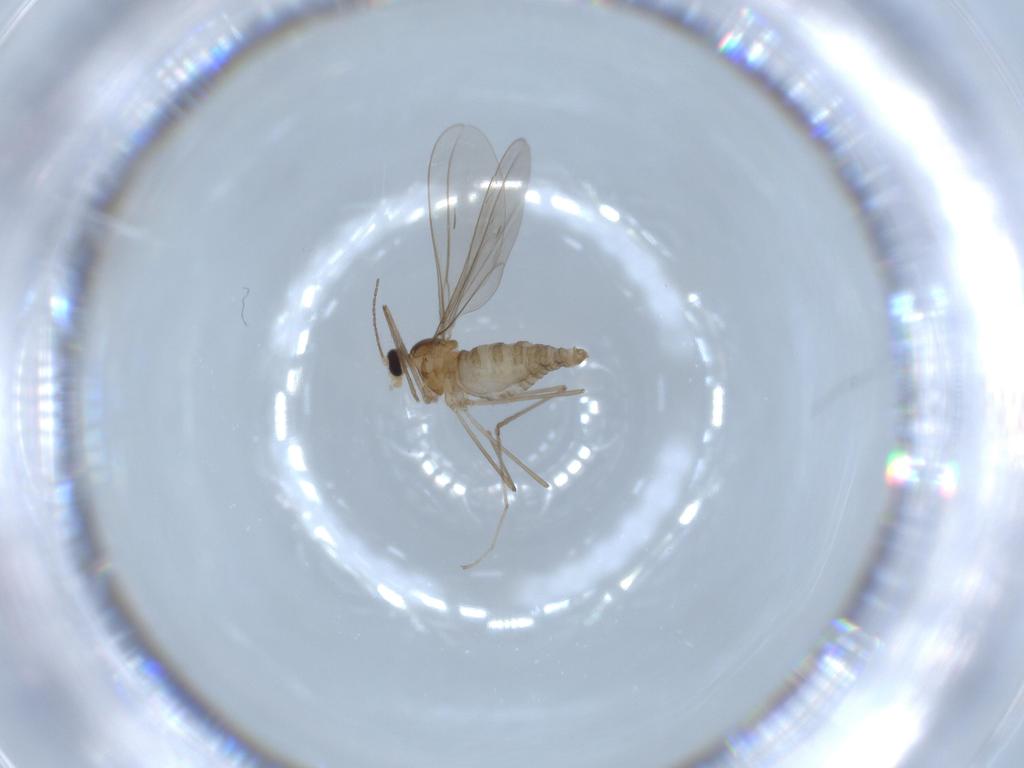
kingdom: Animalia
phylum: Arthropoda
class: Insecta
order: Diptera
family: Cecidomyiidae
